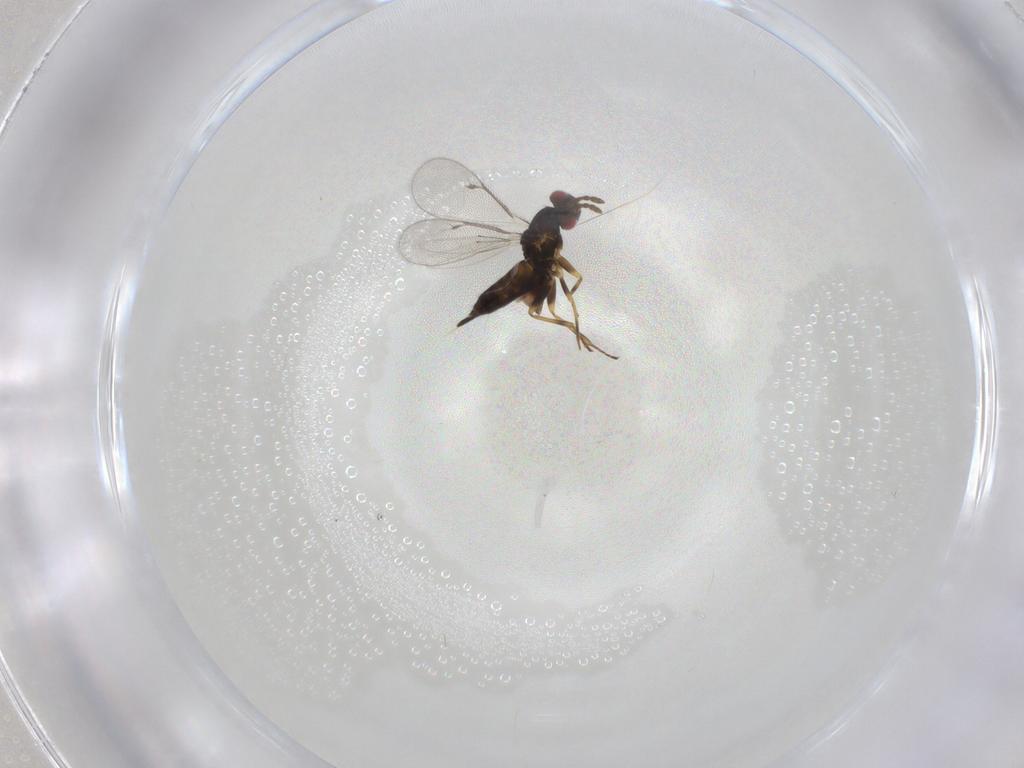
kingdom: Animalia
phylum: Arthropoda
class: Insecta
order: Hymenoptera
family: Eulophidae
